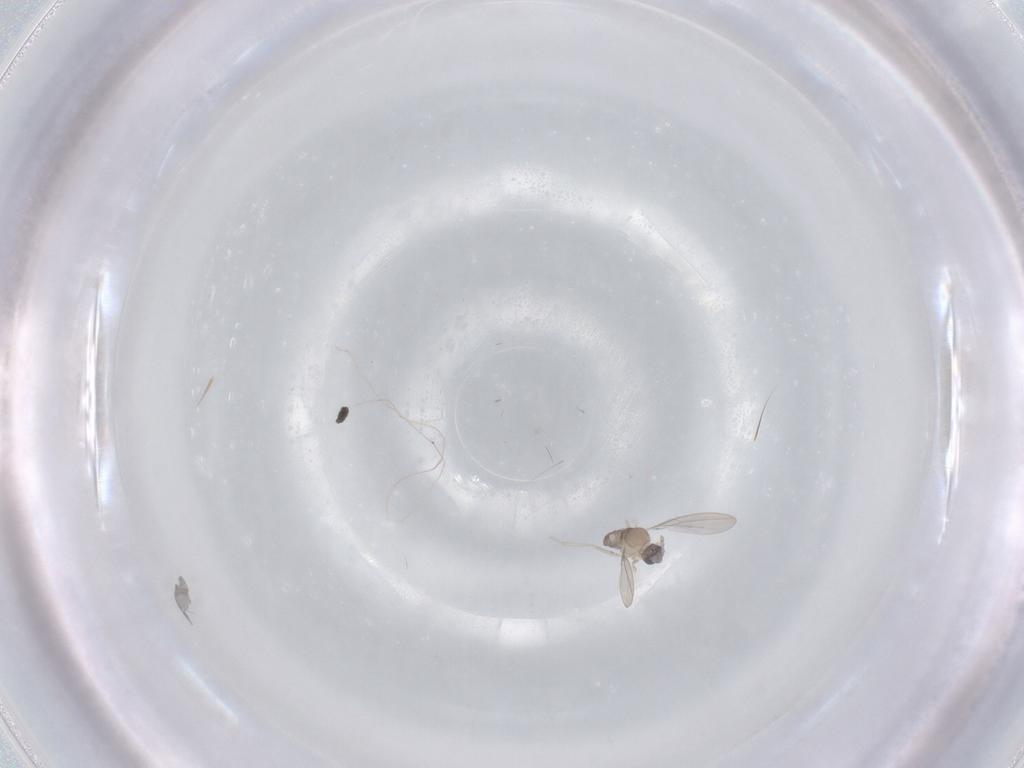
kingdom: Animalia
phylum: Arthropoda
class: Insecta
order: Diptera
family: Cecidomyiidae
